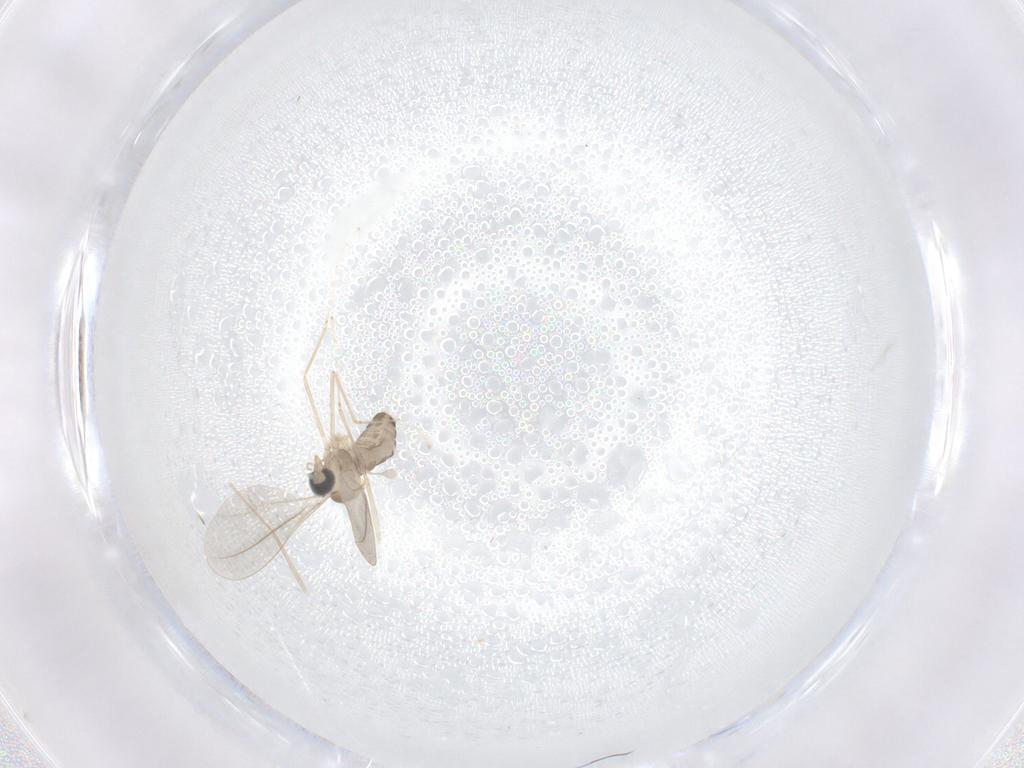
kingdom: Animalia
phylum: Arthropoda
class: Insecta
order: Diptera
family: Cecidomyiidae
